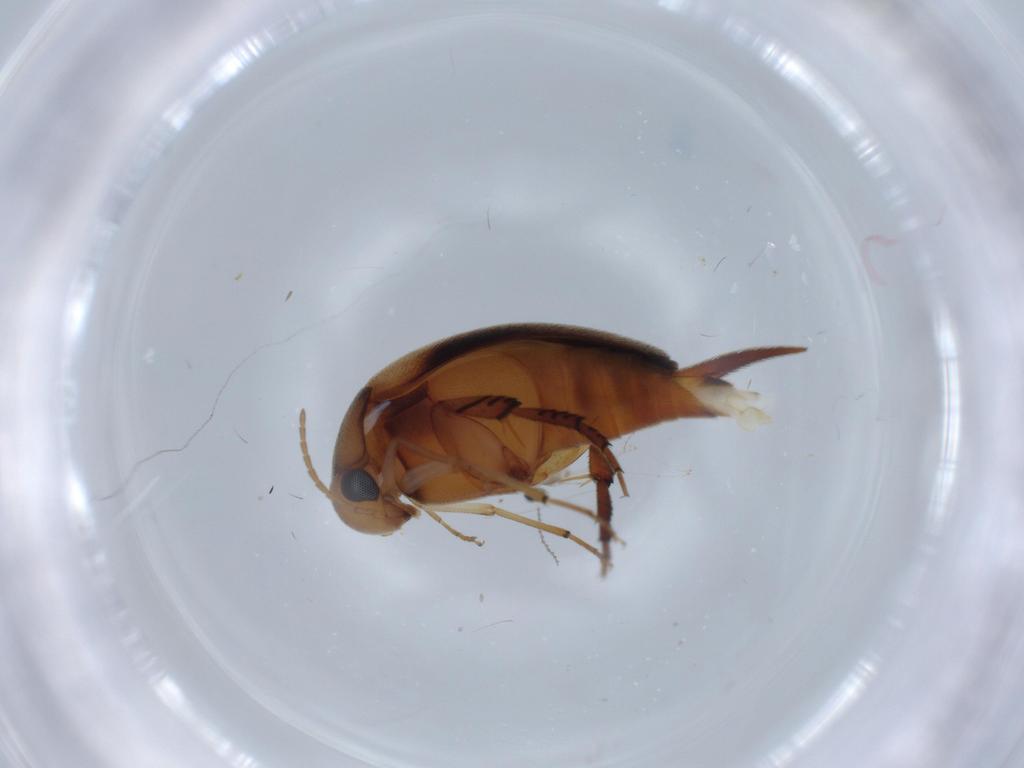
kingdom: Animalia
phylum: Arthropoda
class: Insecta
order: Coleoptera
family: Mordellidae
